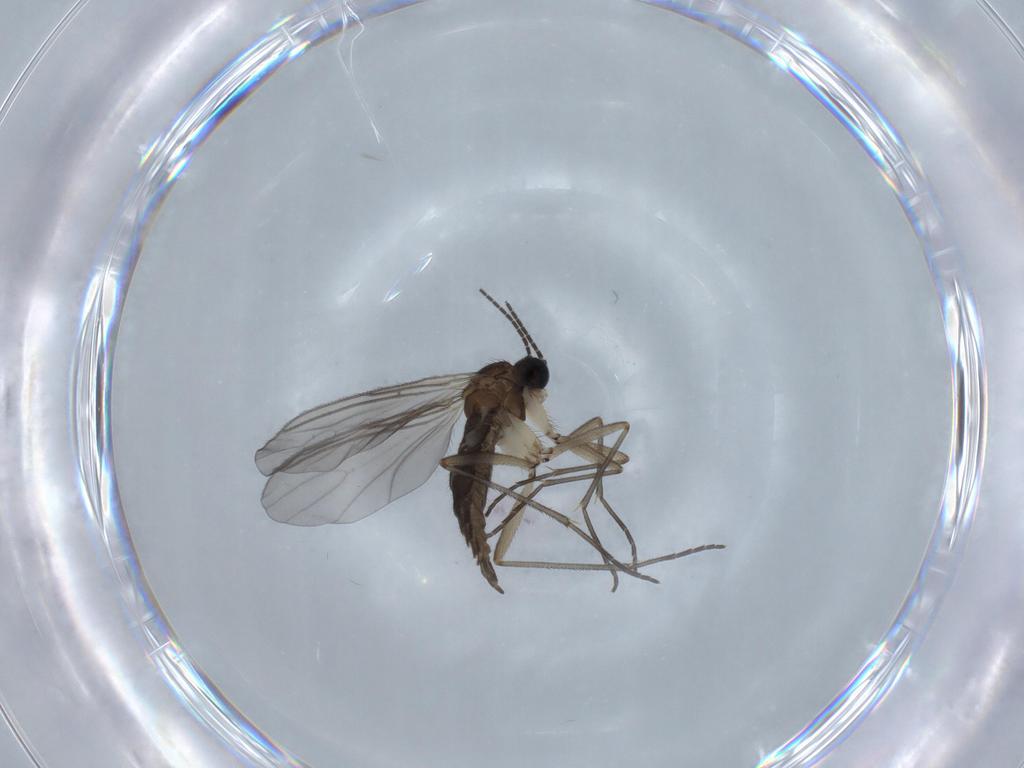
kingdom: Animalia
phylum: Arthropoda
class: Insecta
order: Diptera
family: Sciaridae
